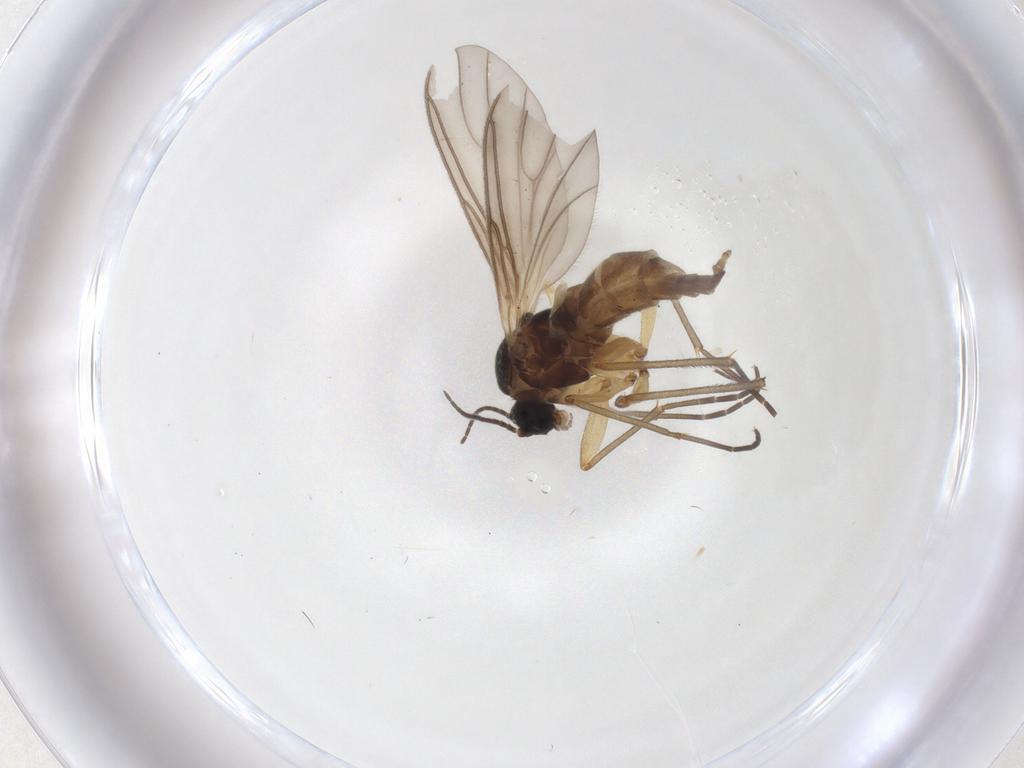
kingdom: Animalia
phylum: Arthropoda
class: Insecta
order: Diptera
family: Sciaridae
